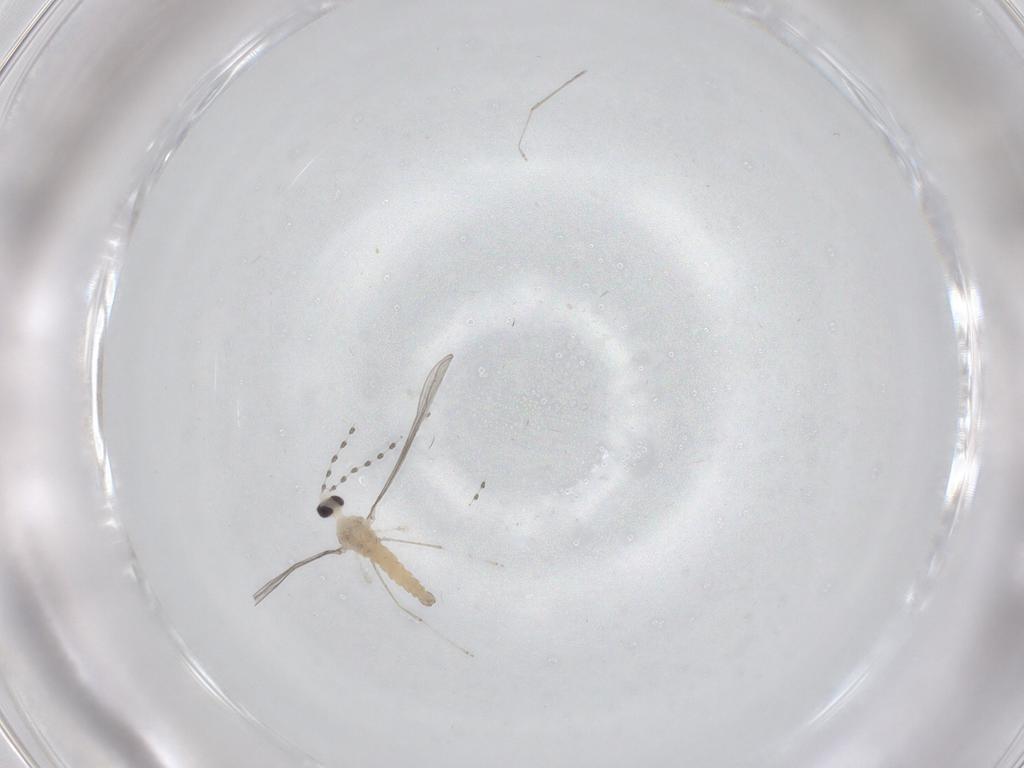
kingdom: Animalia
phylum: Arthropoda
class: Insecta
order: Diptera
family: Cecidomyiidae
